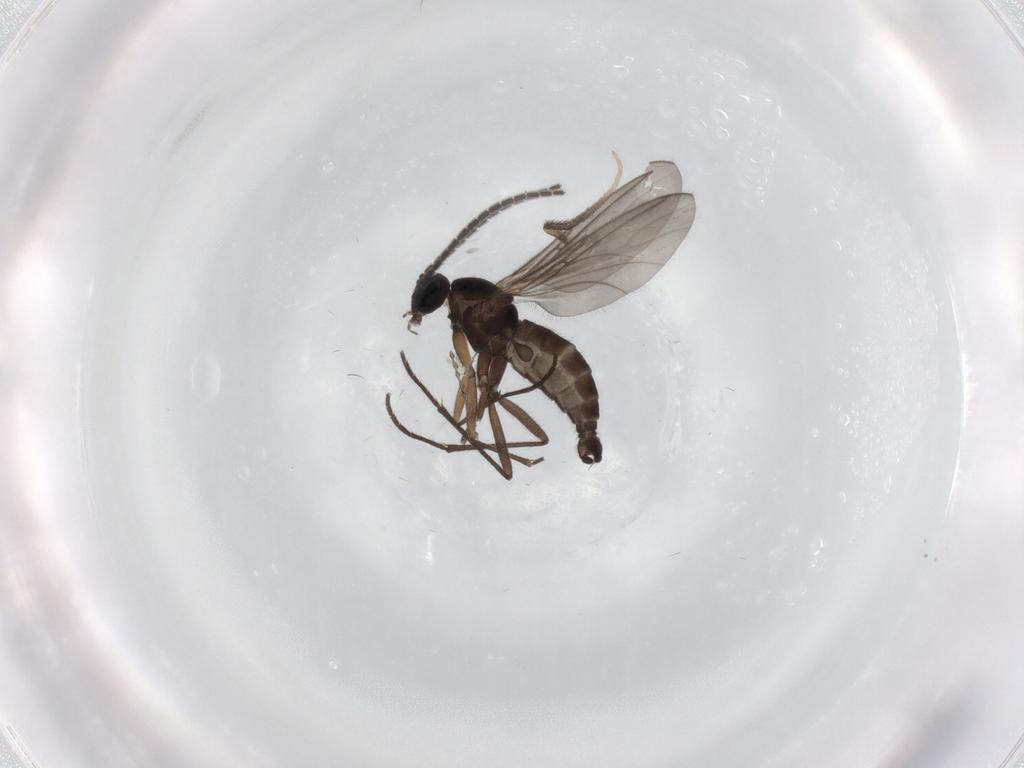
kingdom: Animalia
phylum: Arthropoda
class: Insecta
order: Diptera
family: Sciaridae
